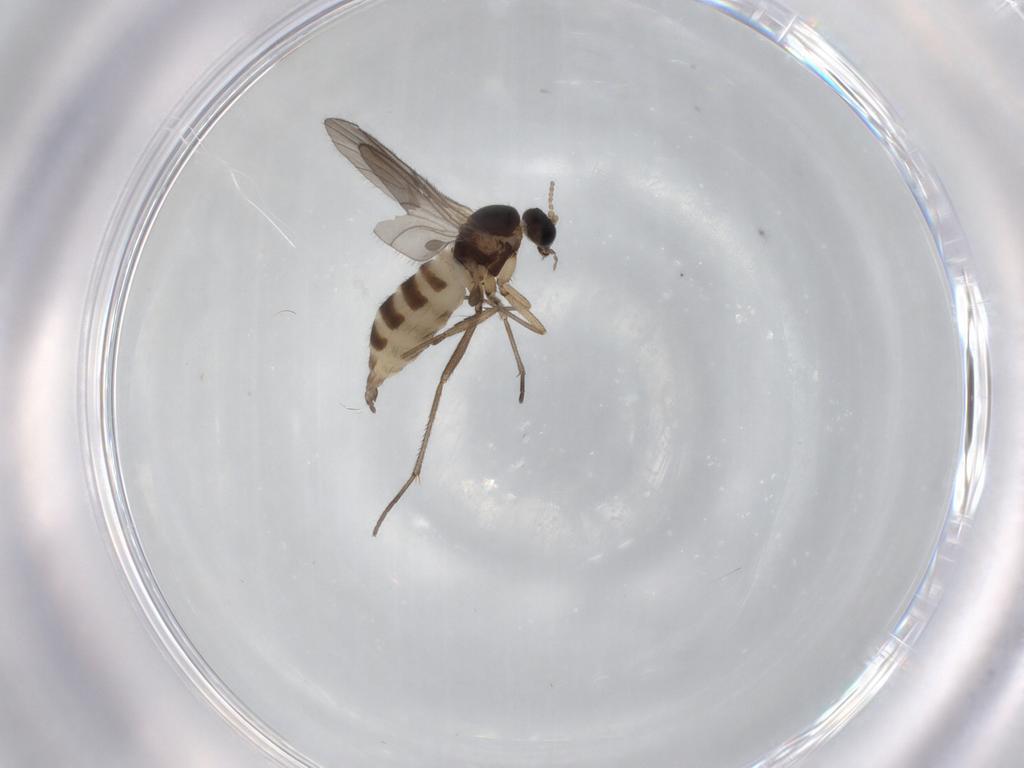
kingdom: Animalia
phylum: Arthropoda
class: Insecta
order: Diptera
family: Sciaridae
